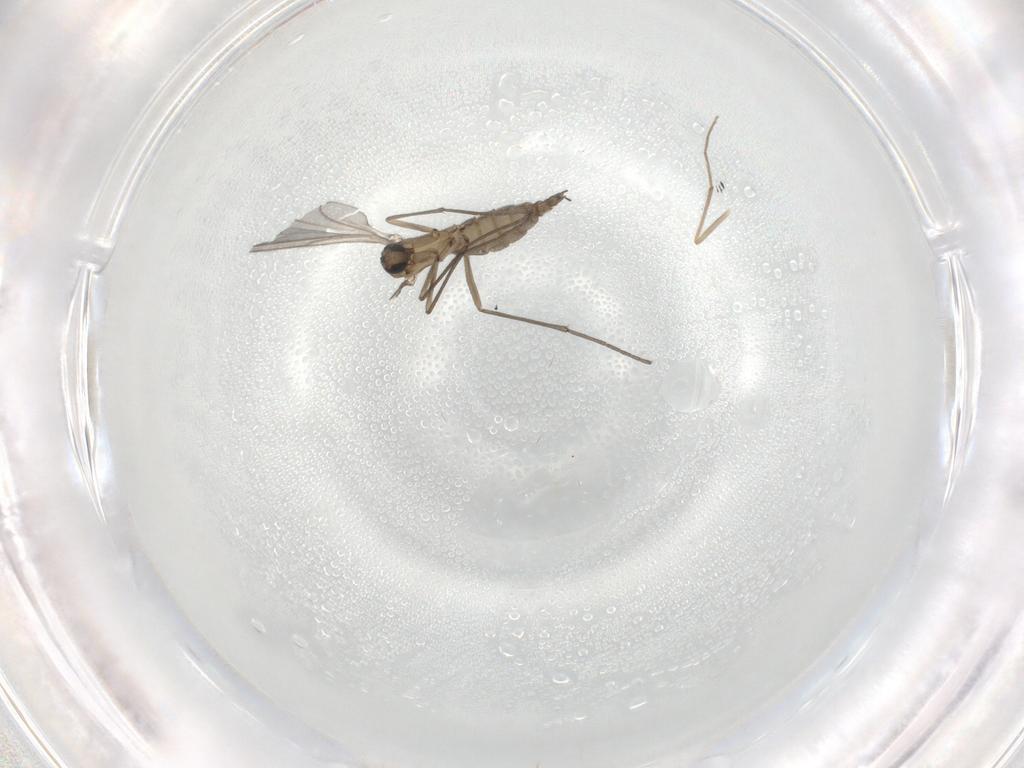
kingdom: Animalia
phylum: Arthropoda
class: Insecta
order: Diptera
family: Sciaridae
